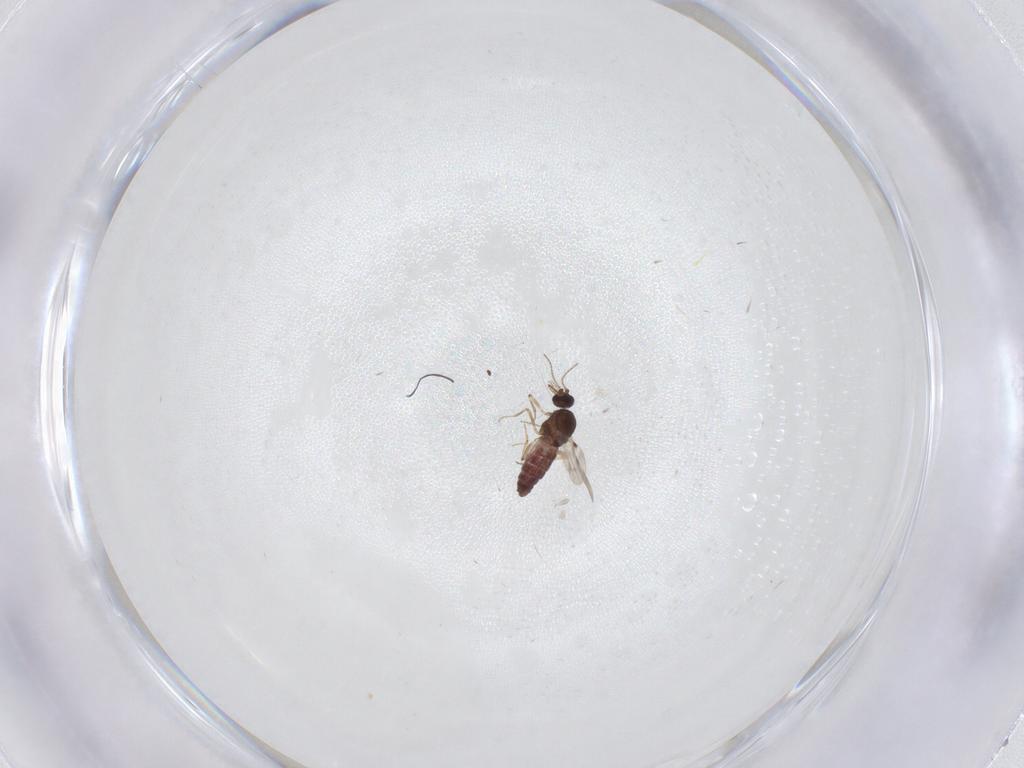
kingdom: Animalia
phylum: Arthropoda
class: Insecta
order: Diptera
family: Cecidomyiidae
